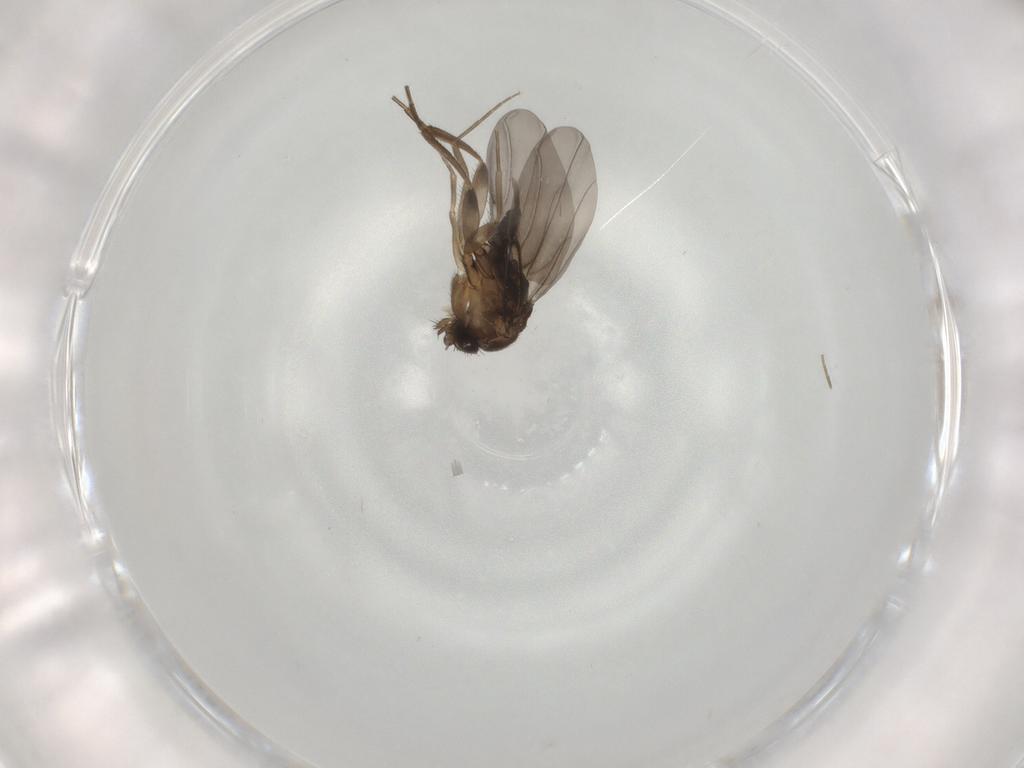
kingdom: Animalia
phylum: Arthropoda
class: Insecta
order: Diptera
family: Phoridae
